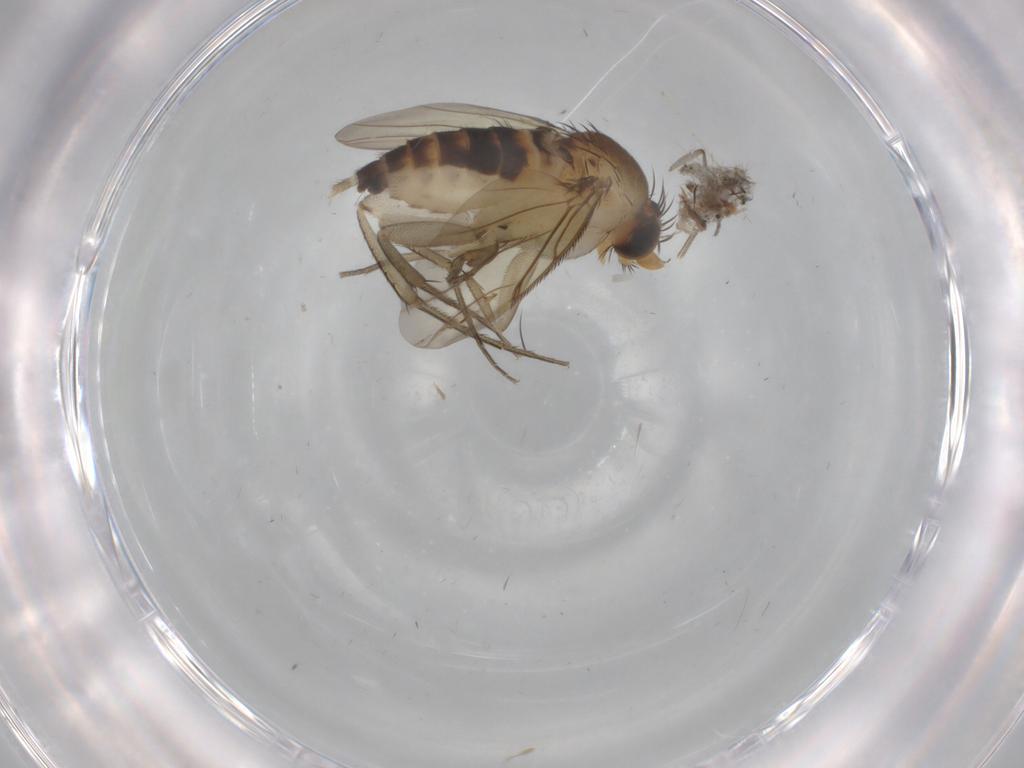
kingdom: Animalia
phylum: Arthropoda
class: Insecta
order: Diptera
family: Phoridae
